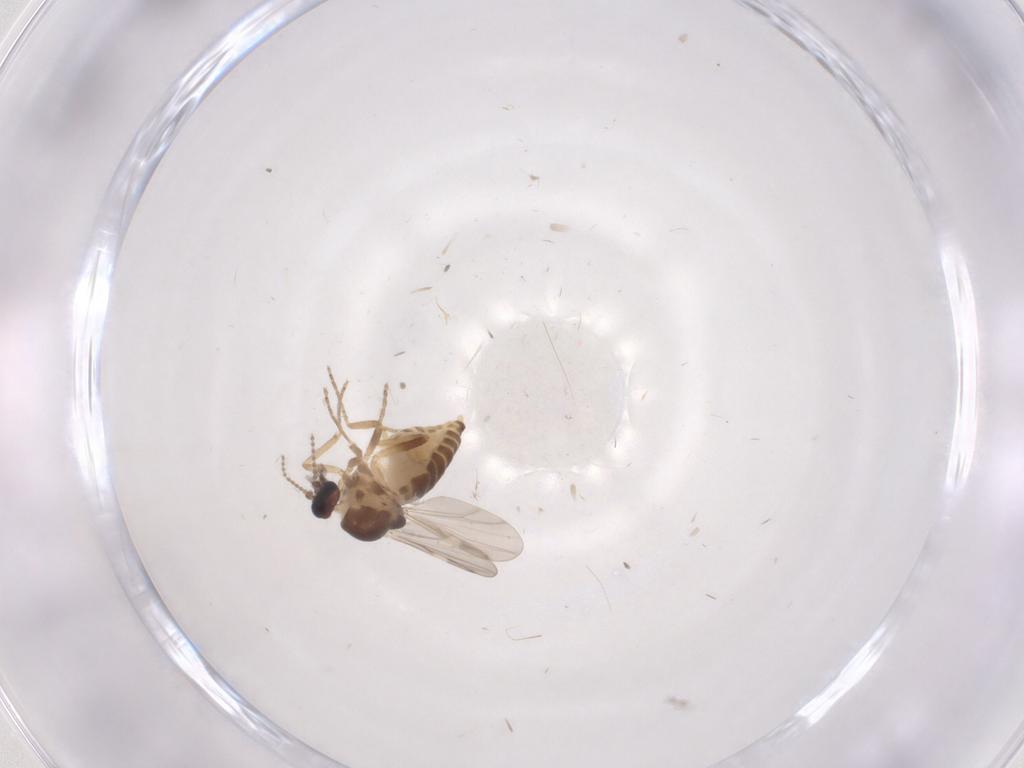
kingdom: Animalia
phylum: Arthropoda
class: Insecta
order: Diptera
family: Ceratopogonidae
